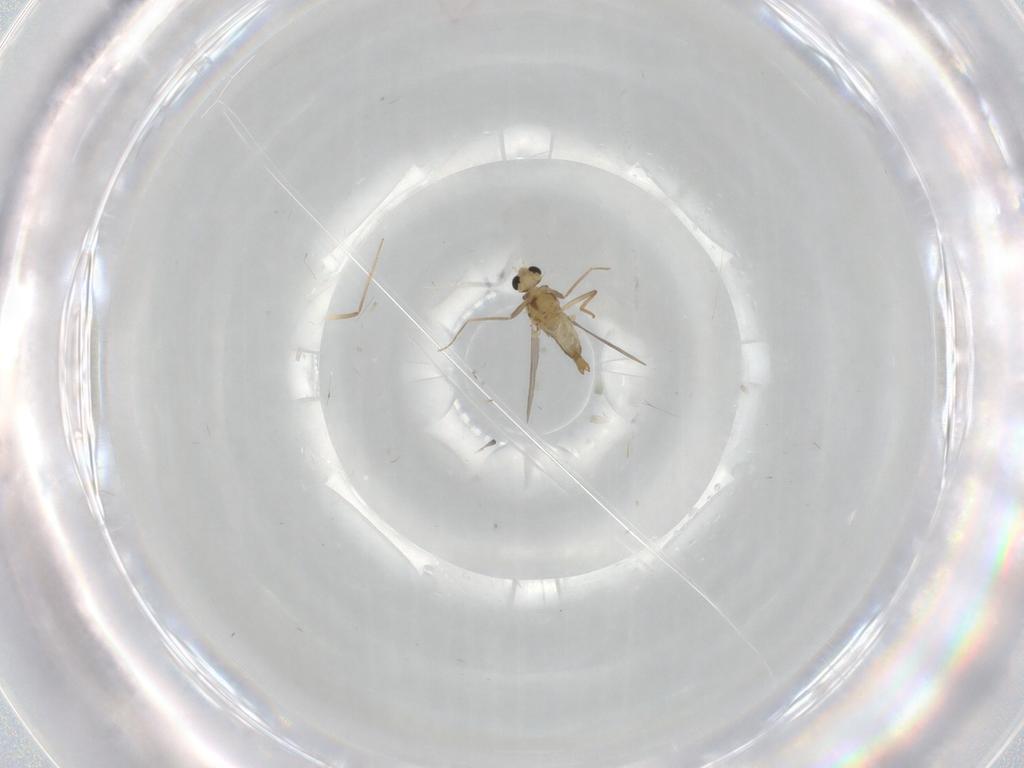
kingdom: Animalia
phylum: Arthropoda
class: Insecta
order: Diptera
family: Chironomidae
